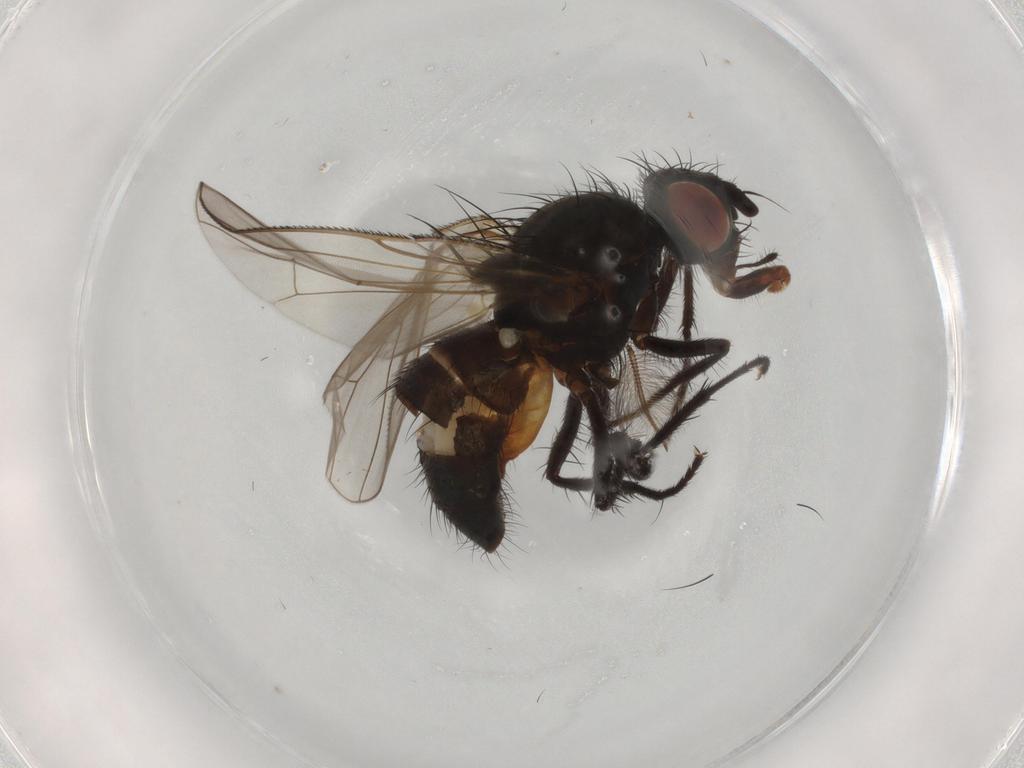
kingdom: Animalia
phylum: Arthropoda
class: Insecta
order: Diptera
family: Anthomyiidae
